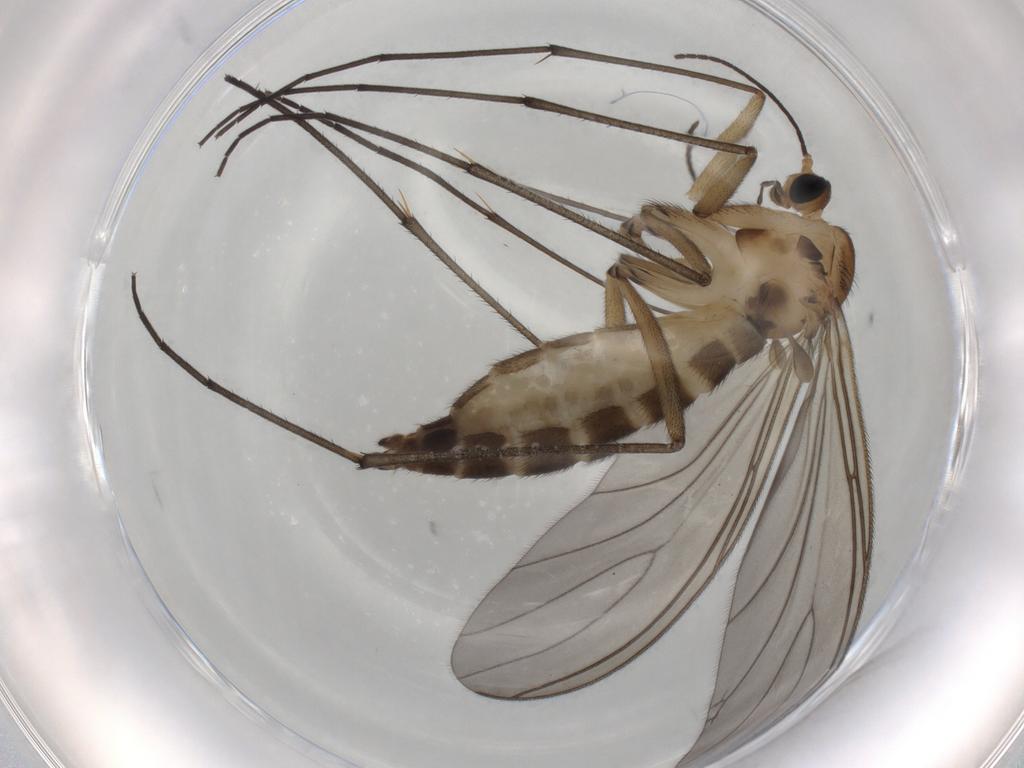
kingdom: Animalia
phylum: Arthropoda
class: Insecta
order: Diptera
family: Sciaridae
